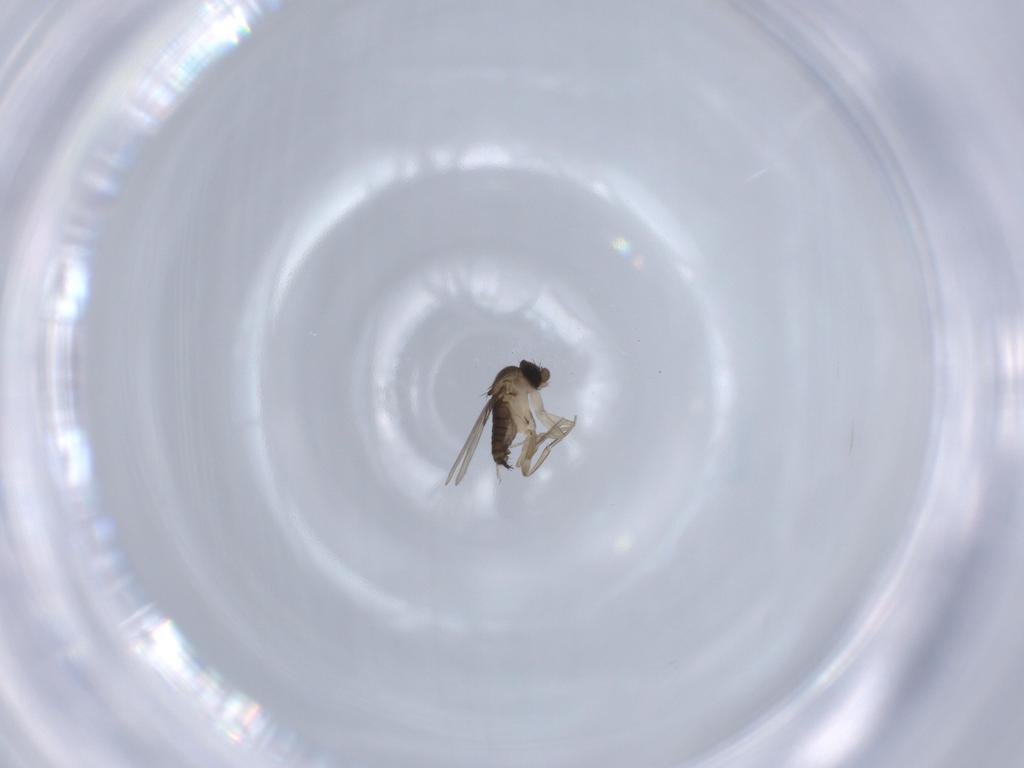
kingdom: Animalia
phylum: Arthropoda
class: Insecta
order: Diptera
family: Phoridae
